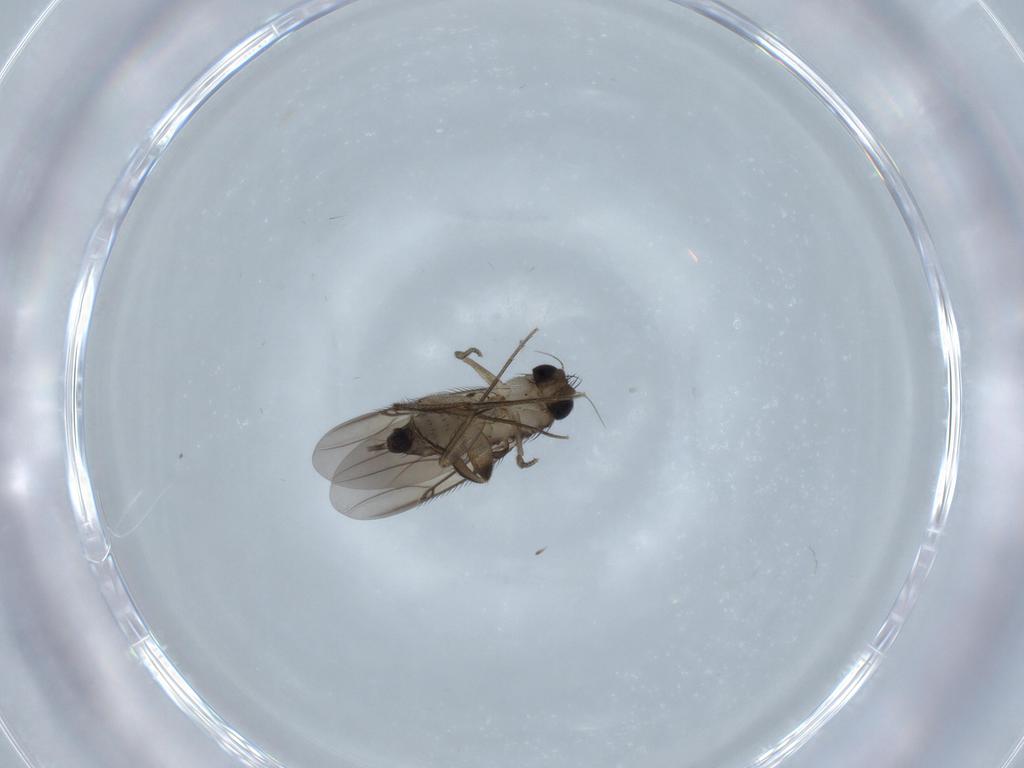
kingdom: Animalia
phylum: Arthropoda
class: Insecta
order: Diptera
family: Phoridae
